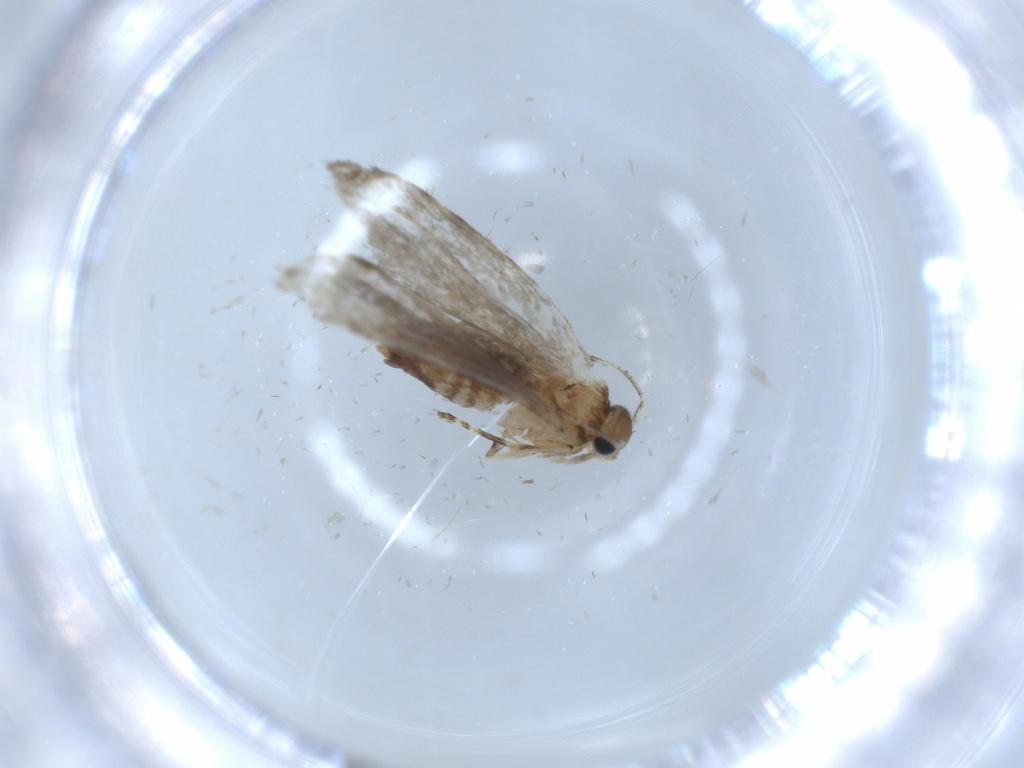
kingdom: Animalia
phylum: Arthropoda
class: Insecta
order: Lepidoptera
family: Tineidae
